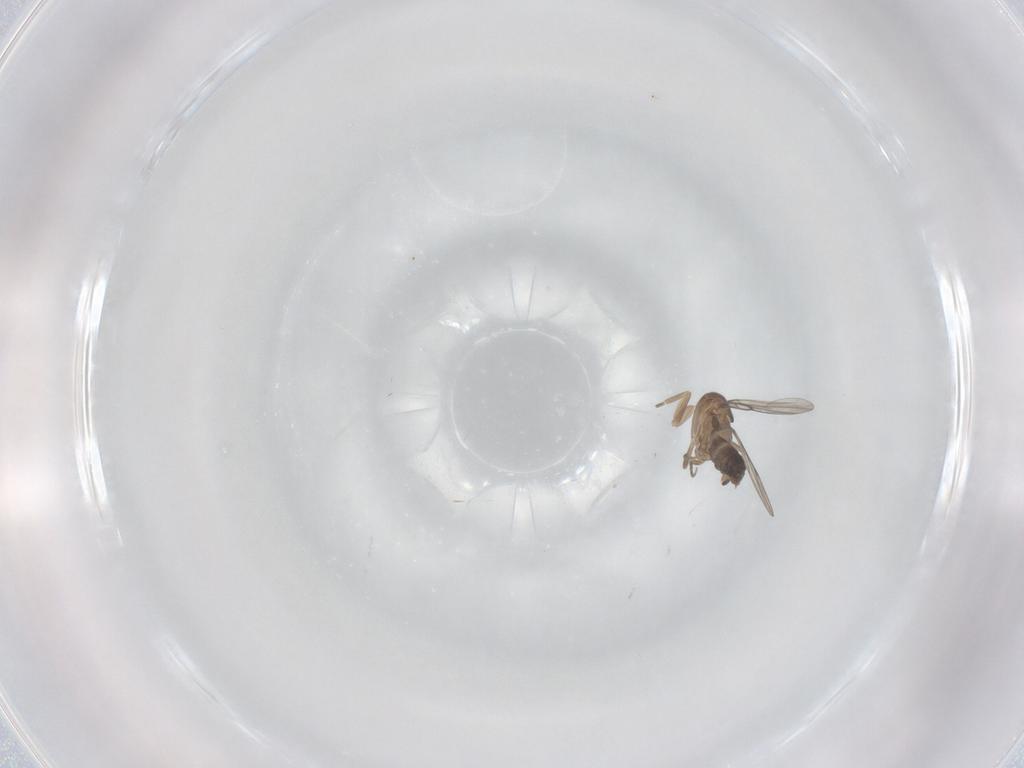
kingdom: Animalia
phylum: Arthropoda
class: Insecta
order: Diptera
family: Phoridae
